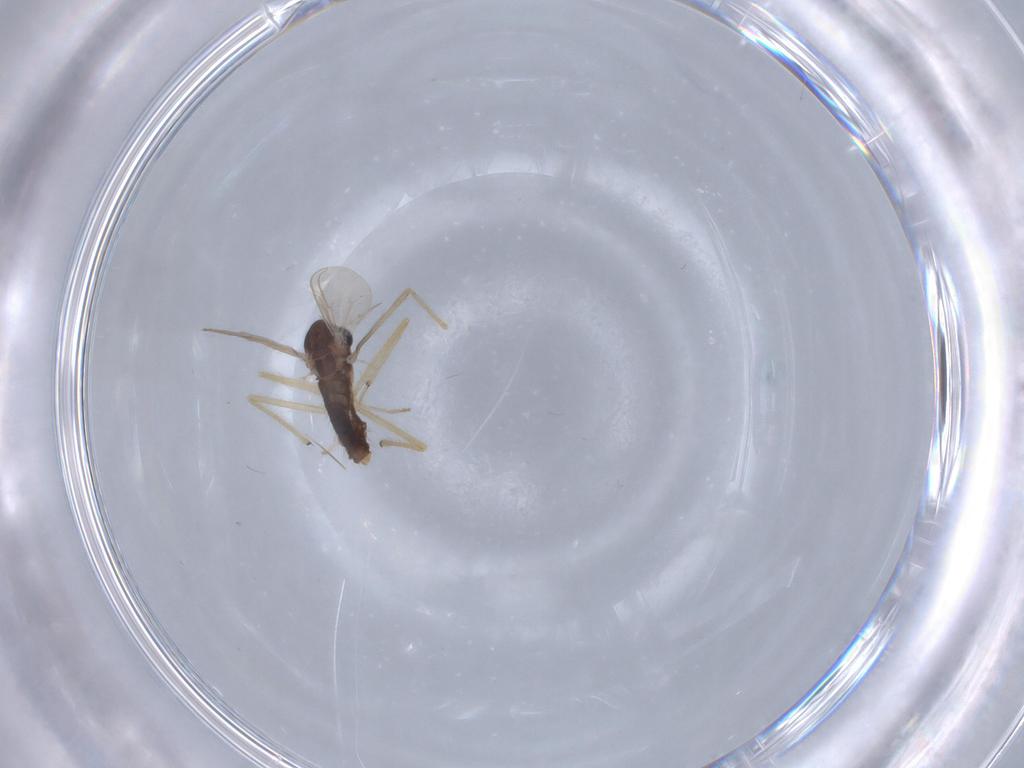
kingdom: Animalia
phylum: Arthropoda
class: Insecta
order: Diptera
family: Chironomidae
